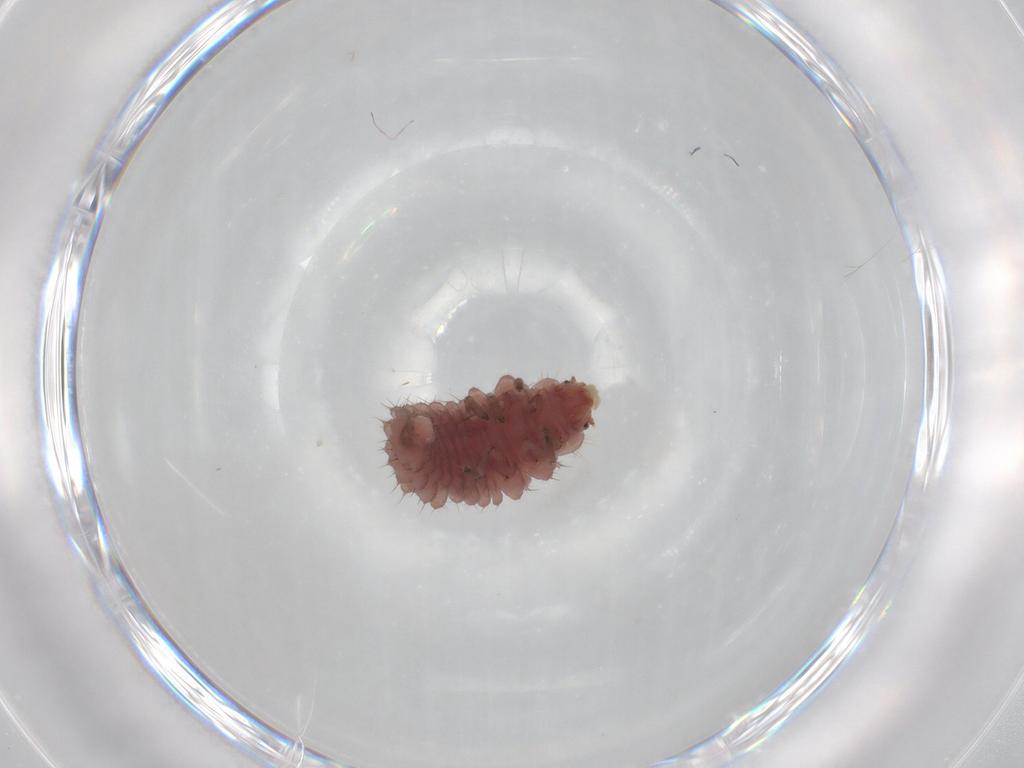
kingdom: Animalia
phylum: Arthropoda
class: Insecta
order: Coleoptera
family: Coccinellidae
